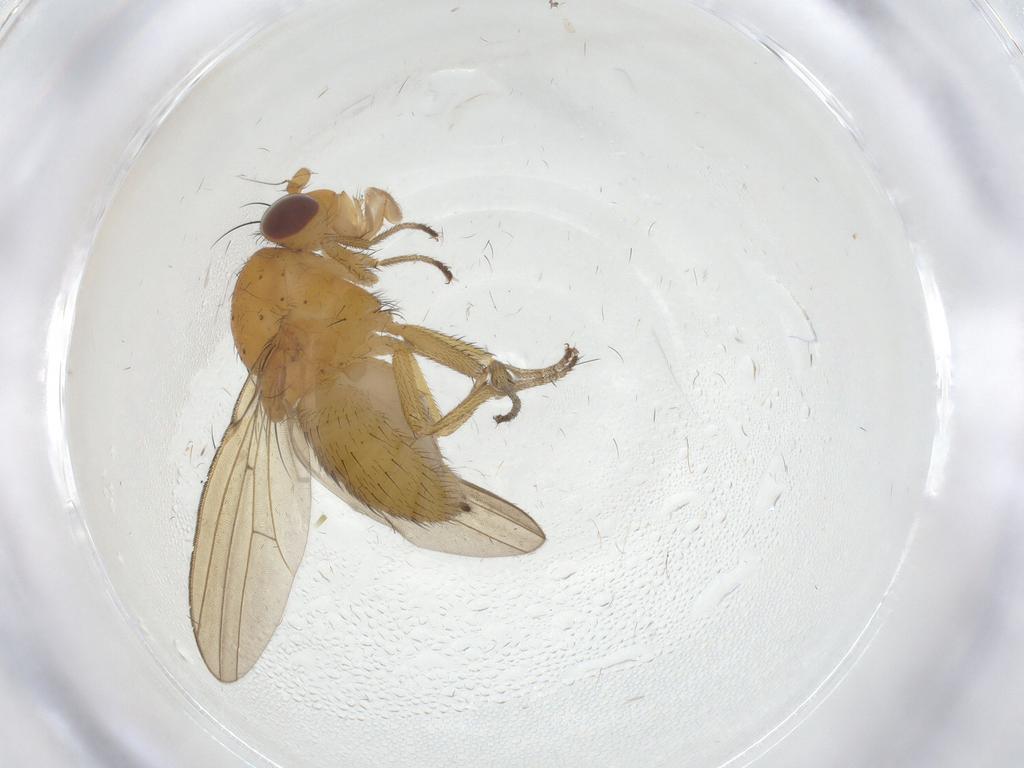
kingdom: Animalia
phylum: Arthropoda
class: Insecta
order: Diptera
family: Lauxaniidae
